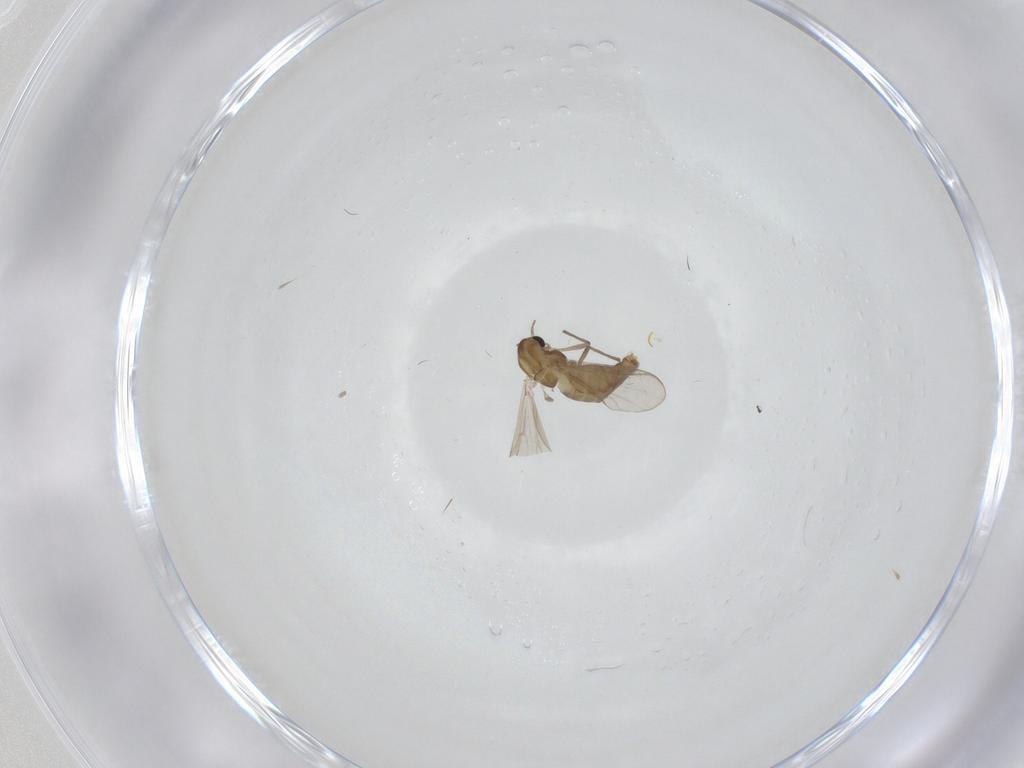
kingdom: Animalia
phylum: Arthropoda
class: Insecta
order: Diptera
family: Chironomidae
